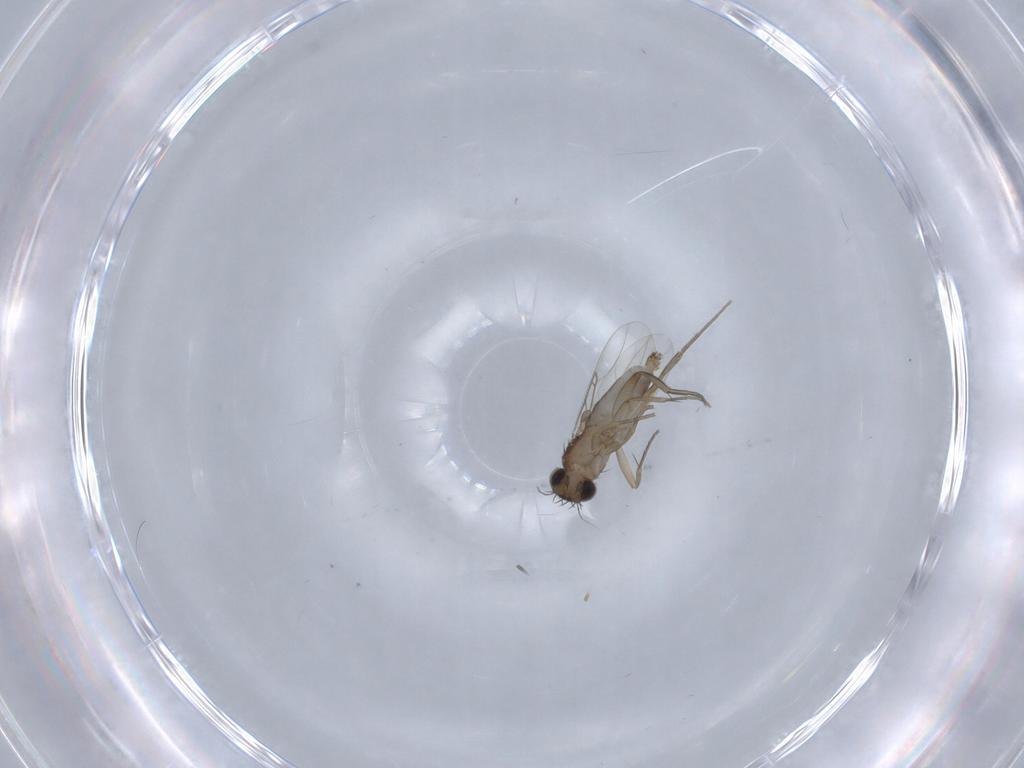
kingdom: Animalia
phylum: Arthropoda
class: Insecta
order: Diptera
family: Phoridae
